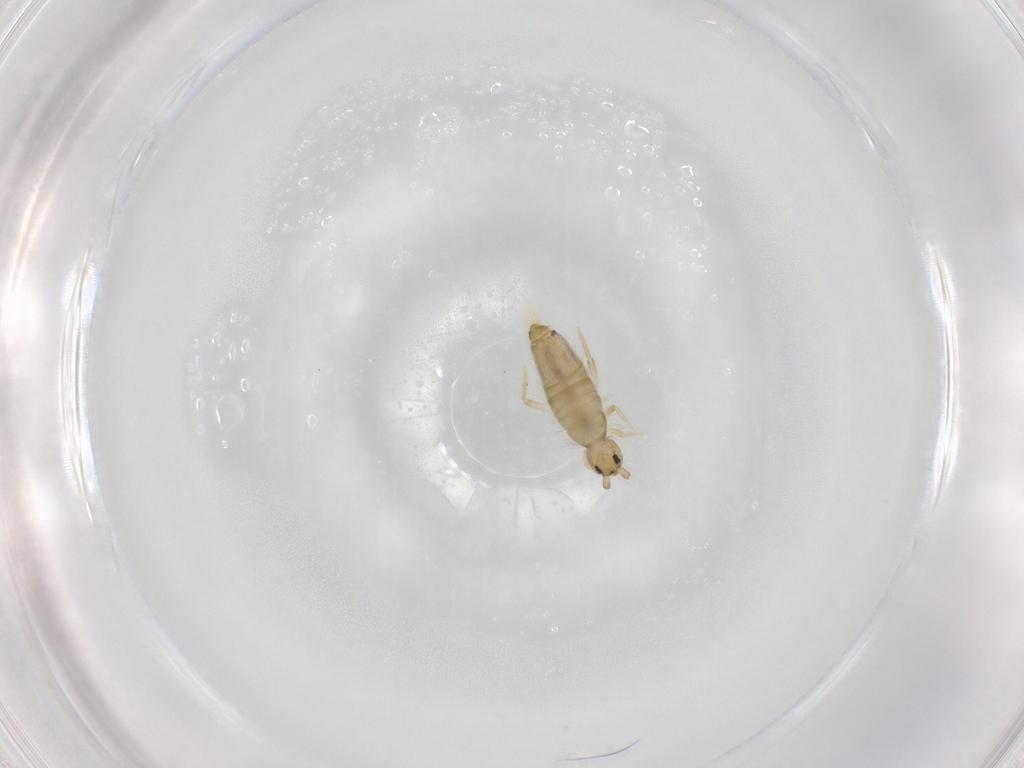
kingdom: Animalia
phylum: Arthropoda
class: Collembola
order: Entomobryomorpha
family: Entomobryidae
